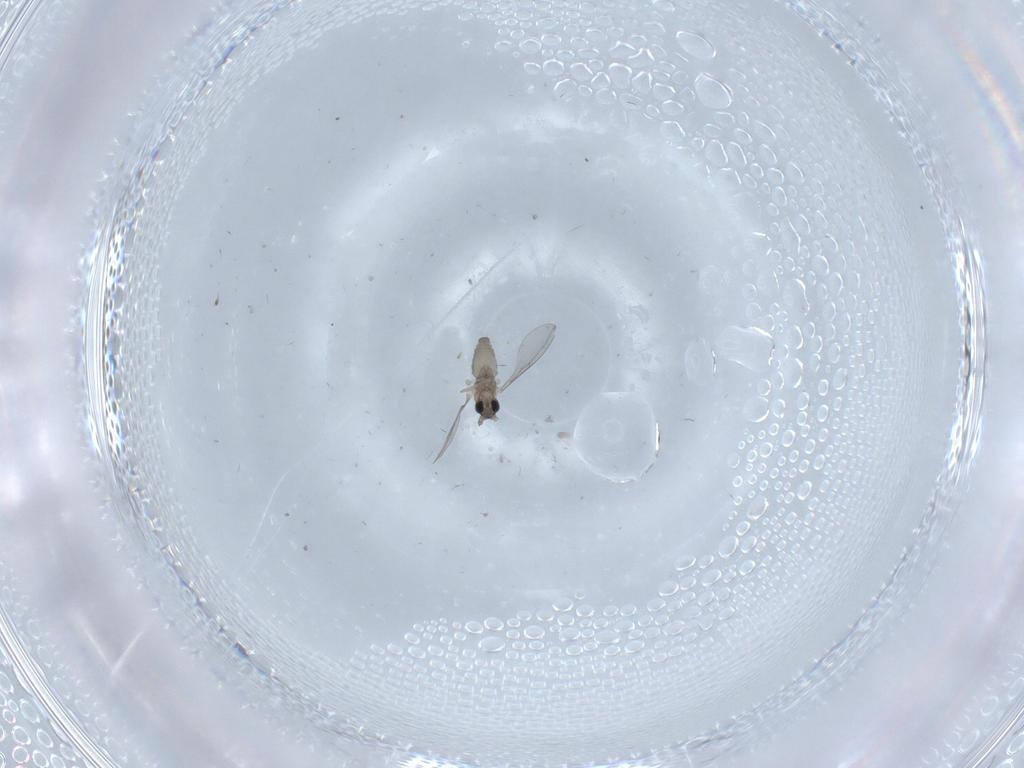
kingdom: Animalia
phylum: Arthropoda
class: Insecta
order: Diptera
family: Cecidomyiidae
